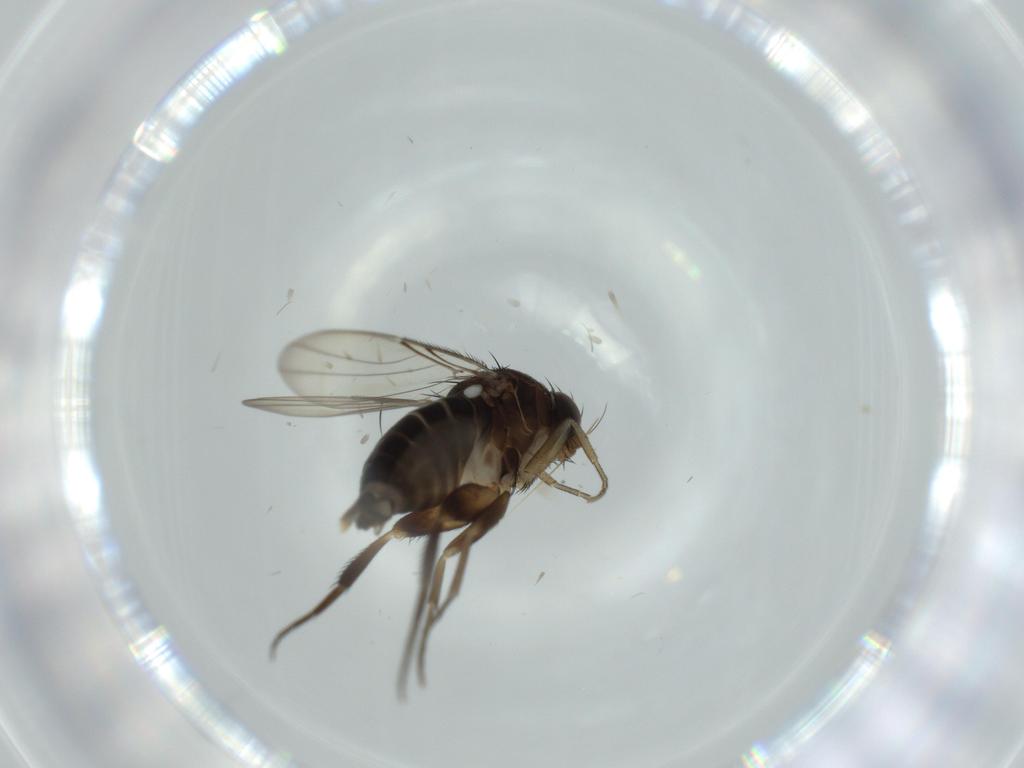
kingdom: Animalia
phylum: Arthropoda
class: Insecta
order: Diptera
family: Phoridae
